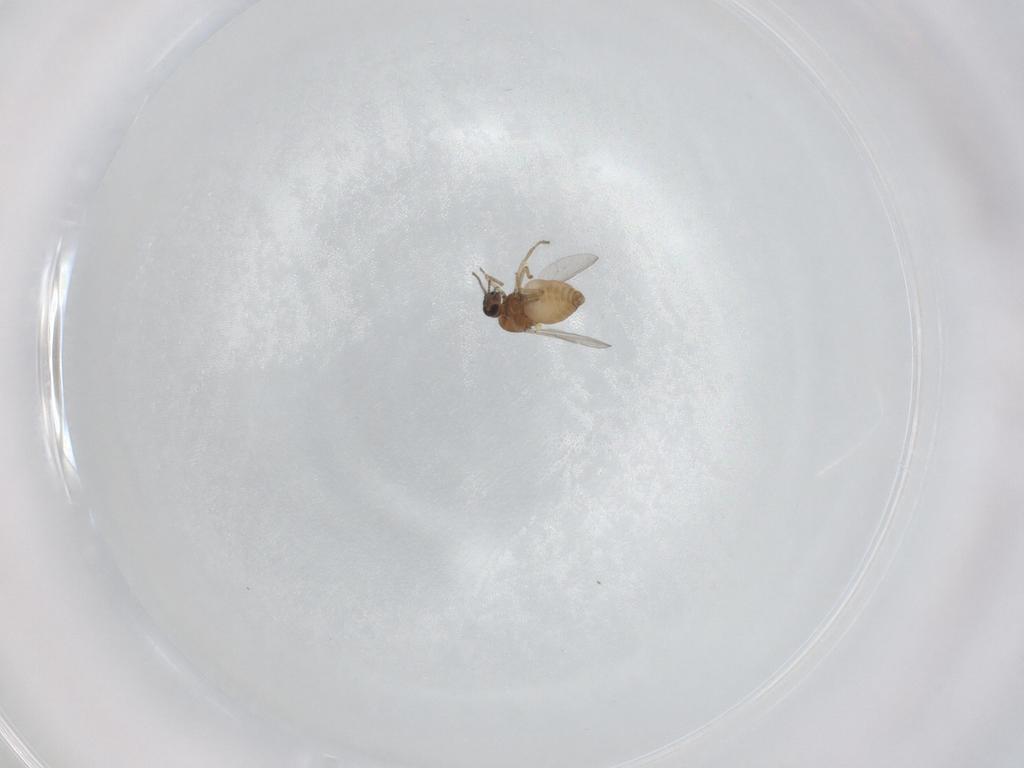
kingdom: Animalia
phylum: Arthropoda
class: Insecta
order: Diptera
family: Ceratopogonidae
